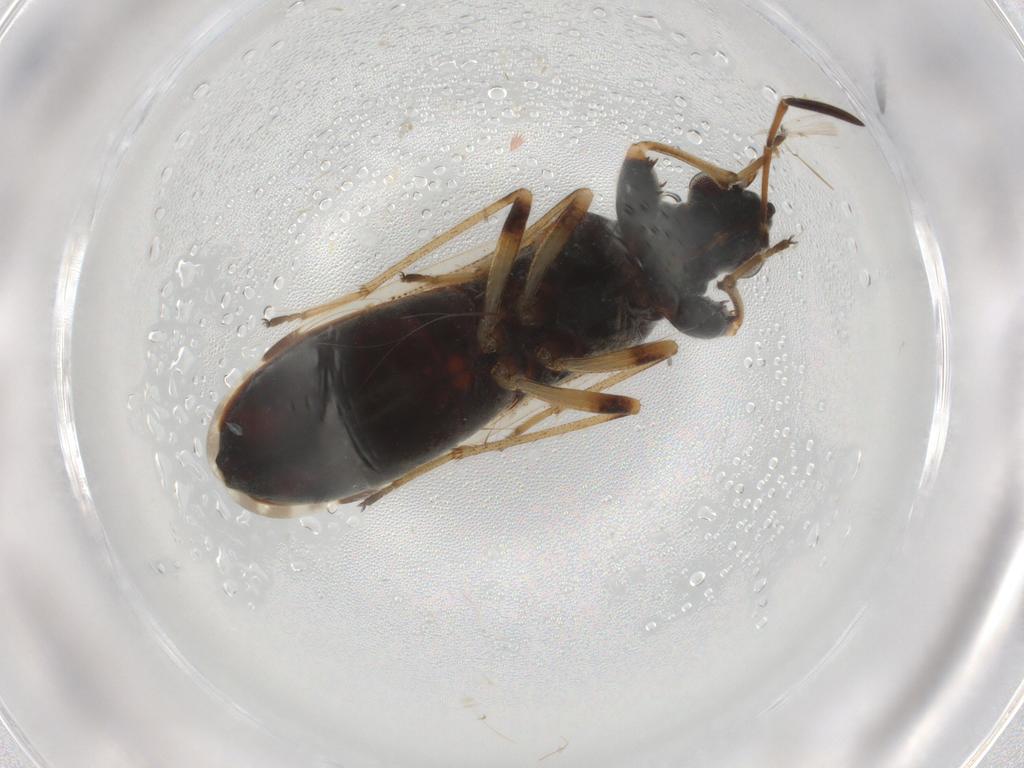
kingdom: Animalia
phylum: Arthropoda
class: Insecta
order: Hemiptera
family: Rhyparochromidae
